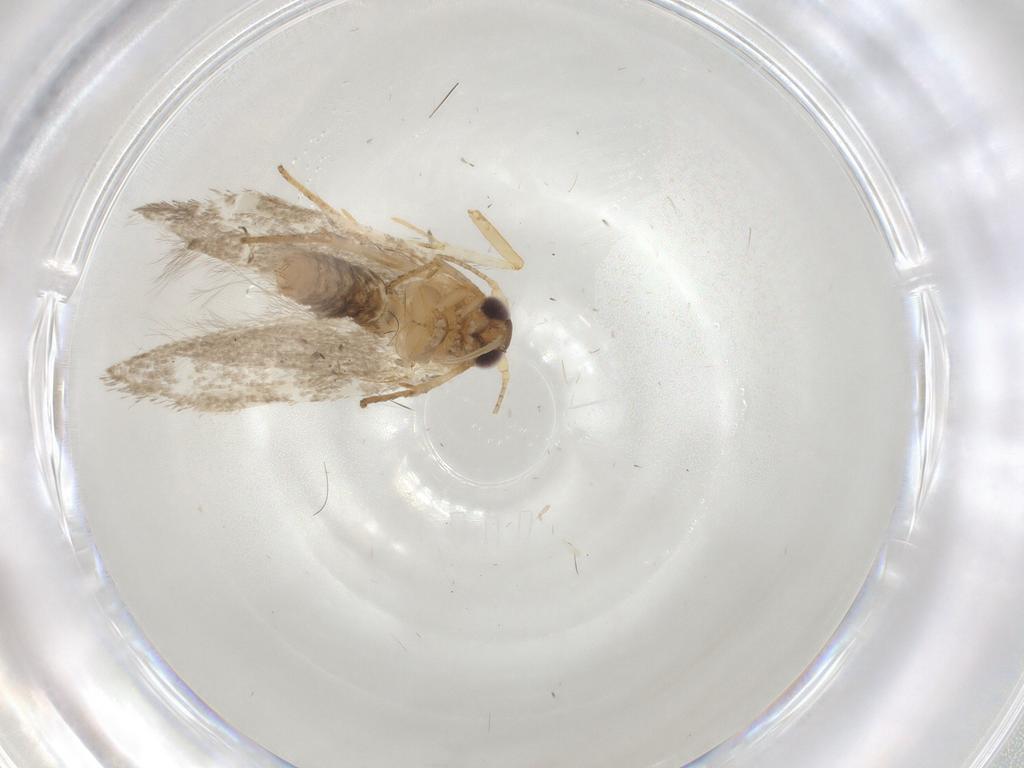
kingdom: Animalia
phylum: Arthropoda
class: Insecta
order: Lepidoptera
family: Coleophoridae
